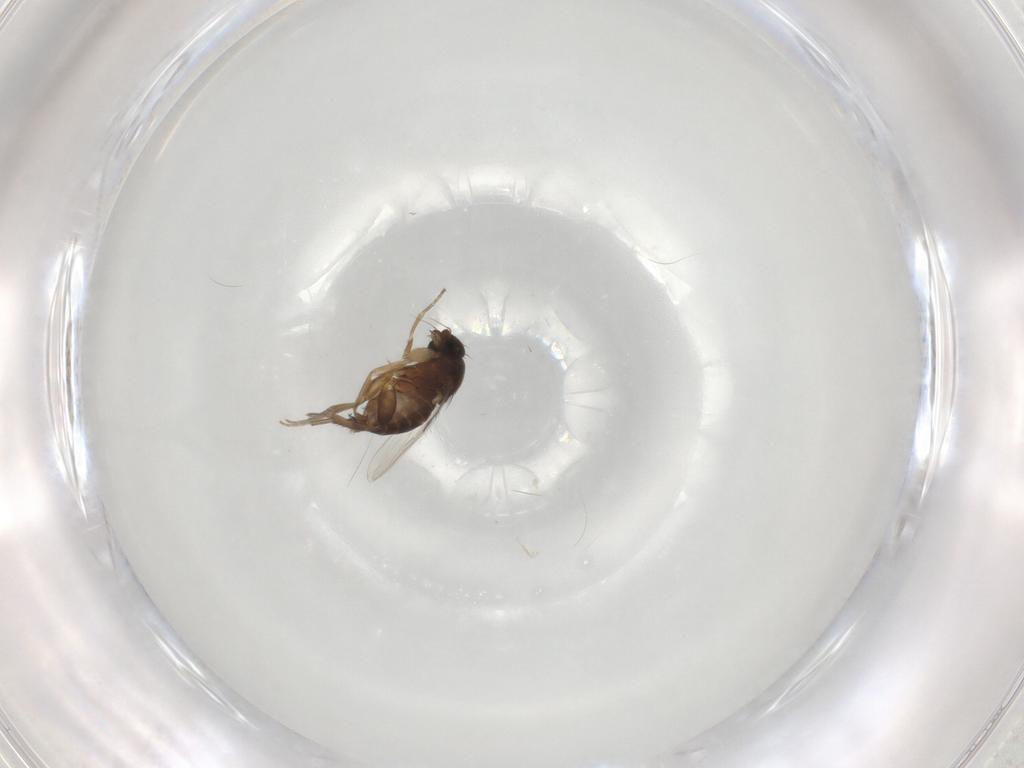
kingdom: Animalia
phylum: Arthropoda
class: Insecta
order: Diptera
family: Phoridae
